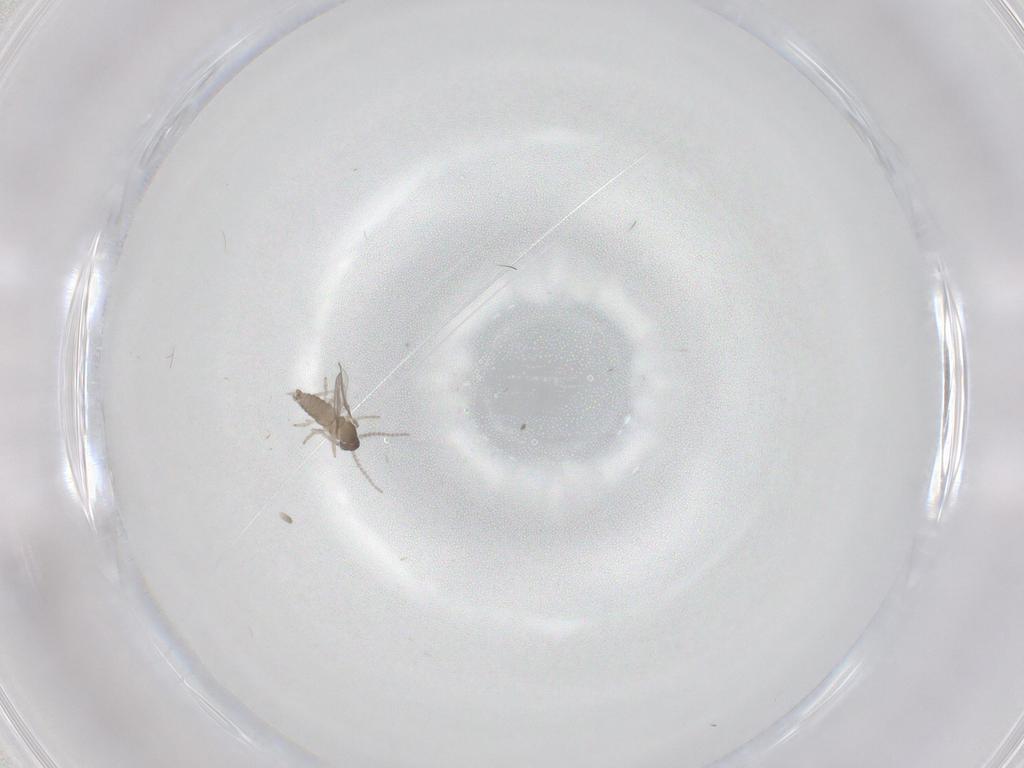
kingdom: Animalia
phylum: Arthropoda
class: Insecta
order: Diptera
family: Cecidomyiidae
